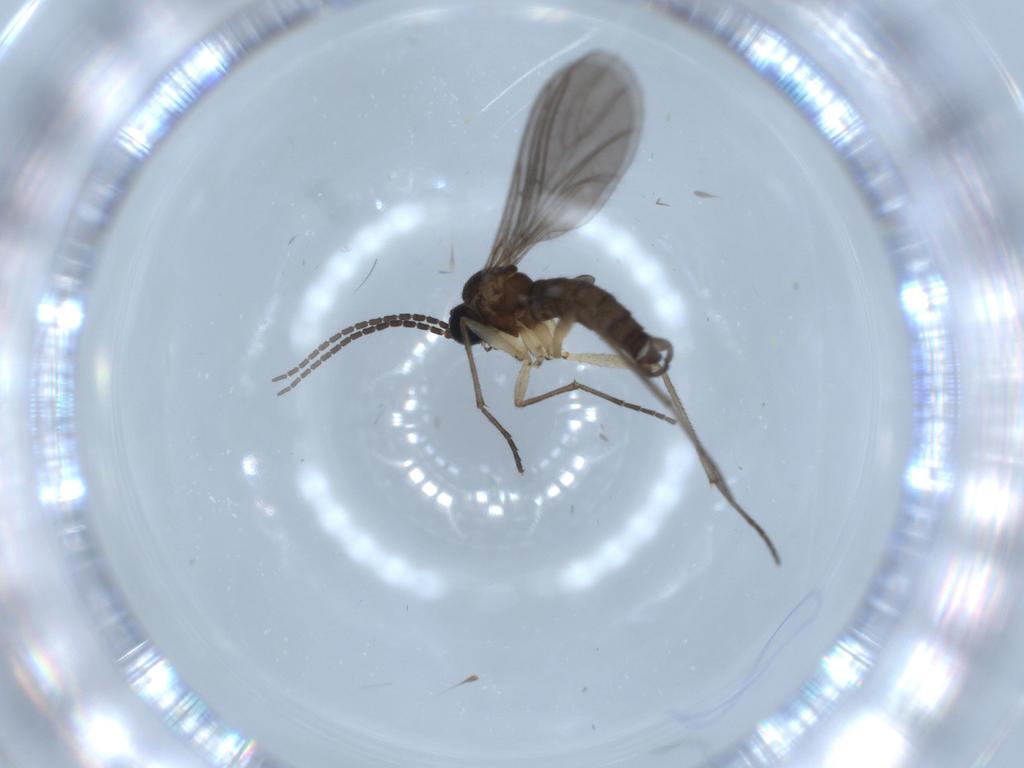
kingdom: Animalia
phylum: Arthropoda
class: Insecta
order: Diptera
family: Sciaridae
